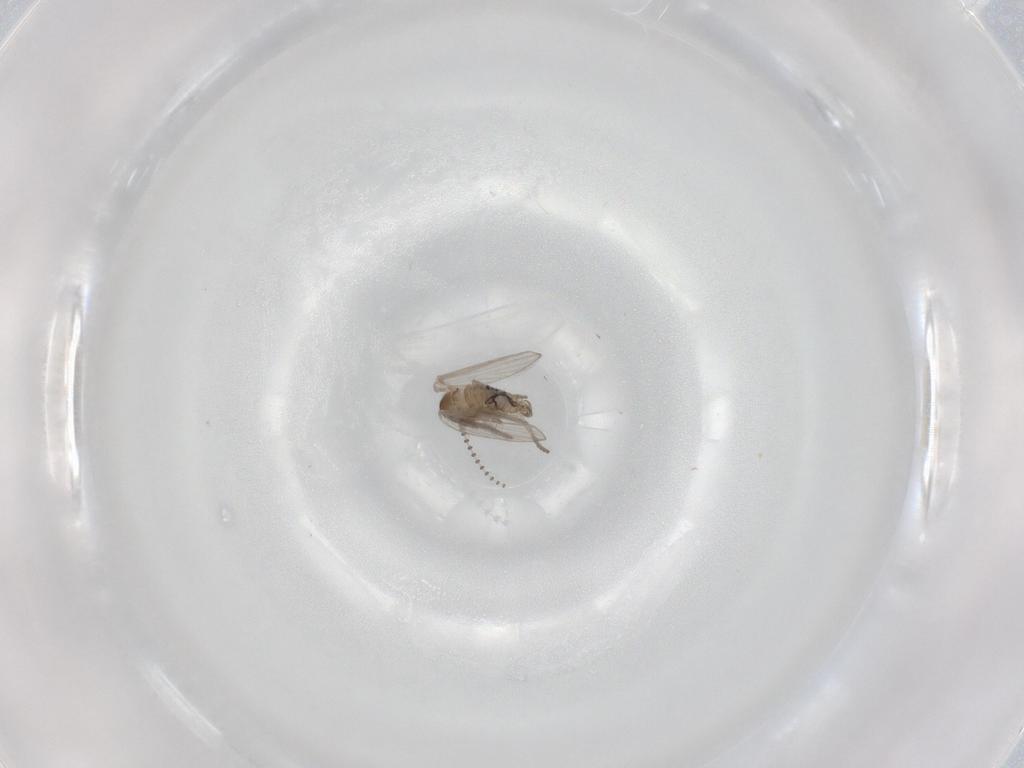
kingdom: Animalia
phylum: Arthropoda
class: Insecta
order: Diptera
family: Psychodidae
